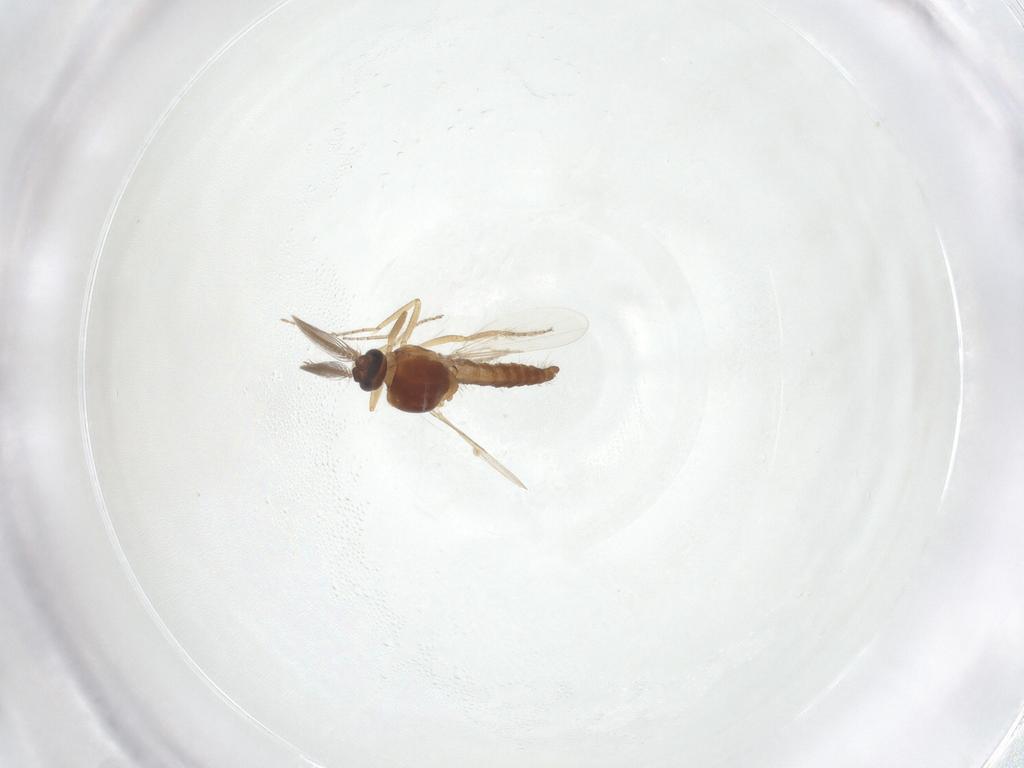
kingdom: Animalia
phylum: Arthropoda
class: Insecta
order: Diptera
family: Ceratopogonidae
